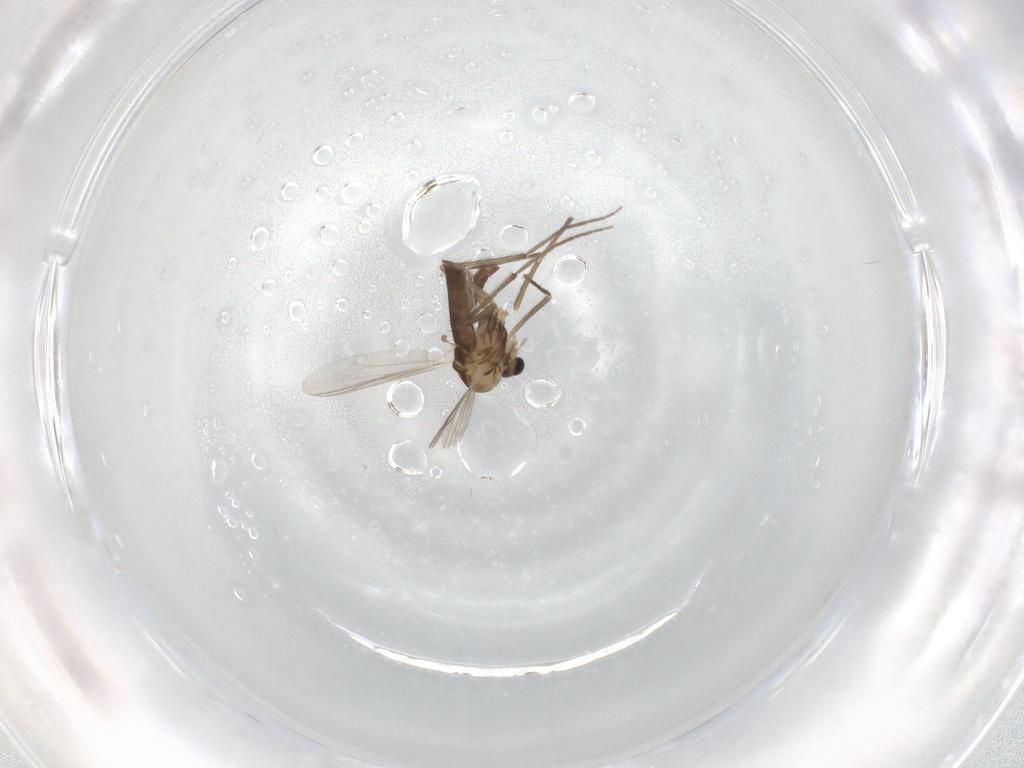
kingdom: Animalia
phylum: Arthropoda
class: Insecta
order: Diptera
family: Chironomidae
